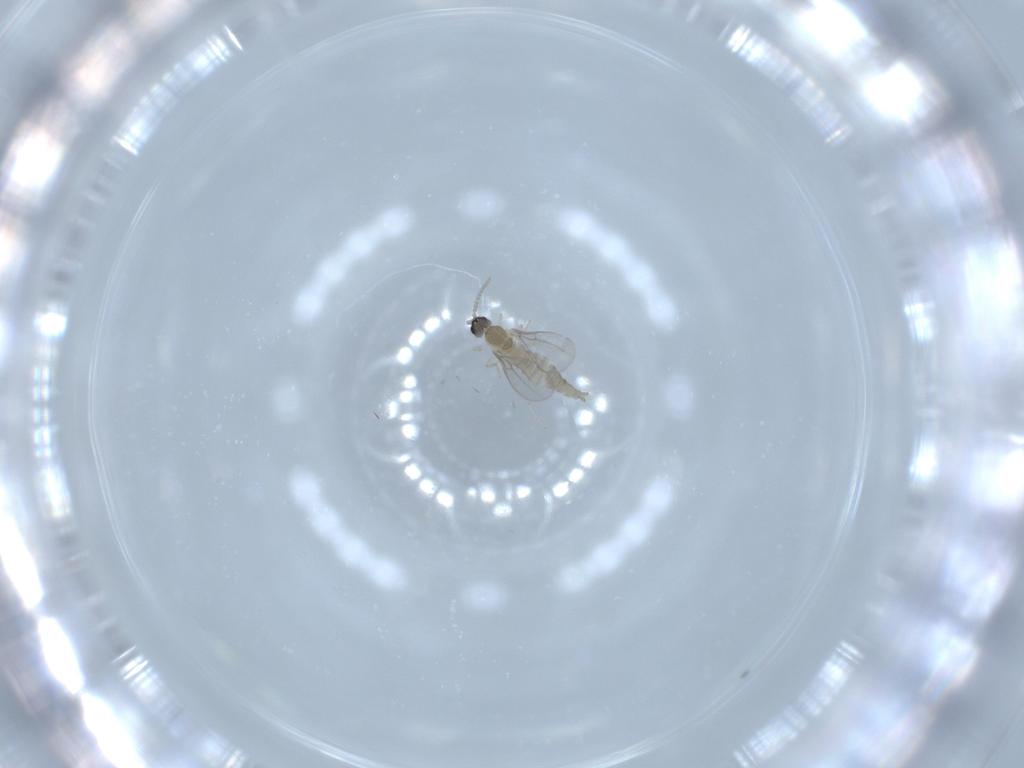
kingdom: Animalia
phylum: Arthropoda
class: Insecta
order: Diptera
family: Cecidomyiidae
